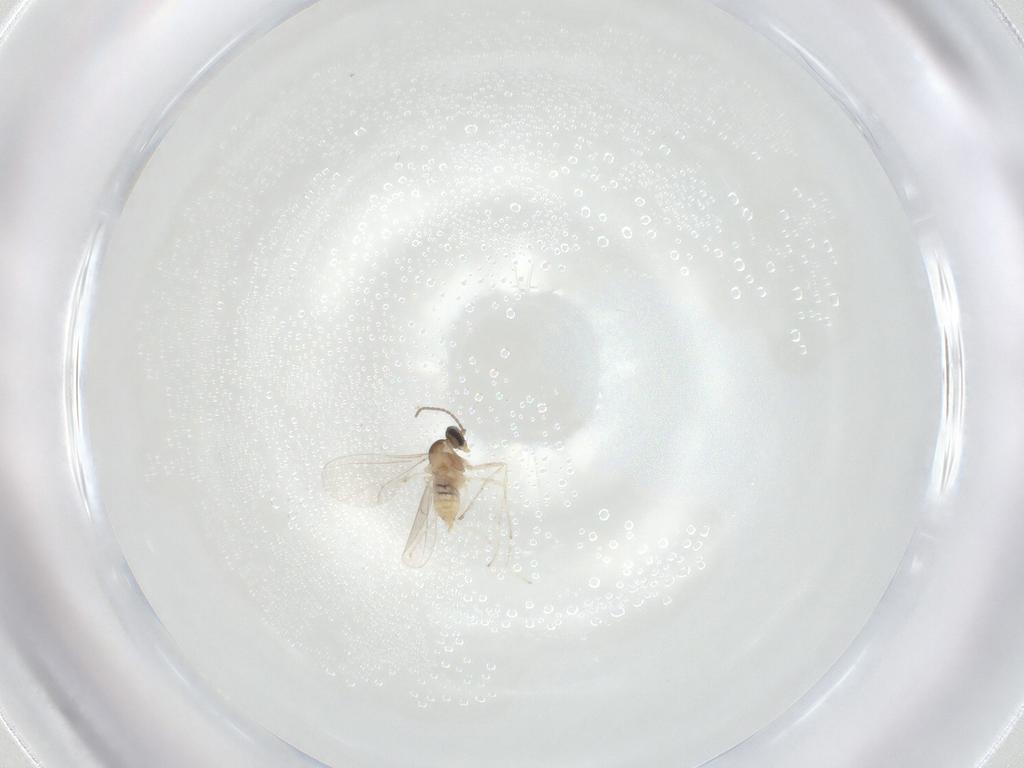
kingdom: Animalia
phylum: Arthropoda
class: Insecta
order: Diptera
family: Cecidomyiidae
